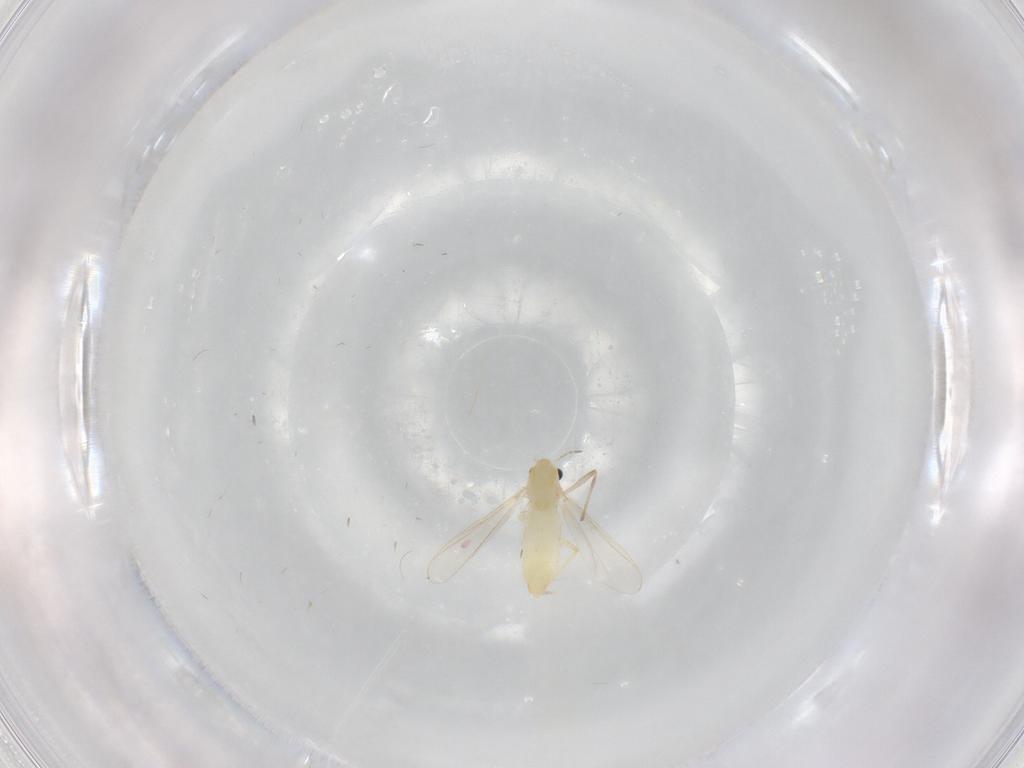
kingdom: Animalia
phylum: Arthropoda
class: Insecta
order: Diptera
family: Chironomidae
